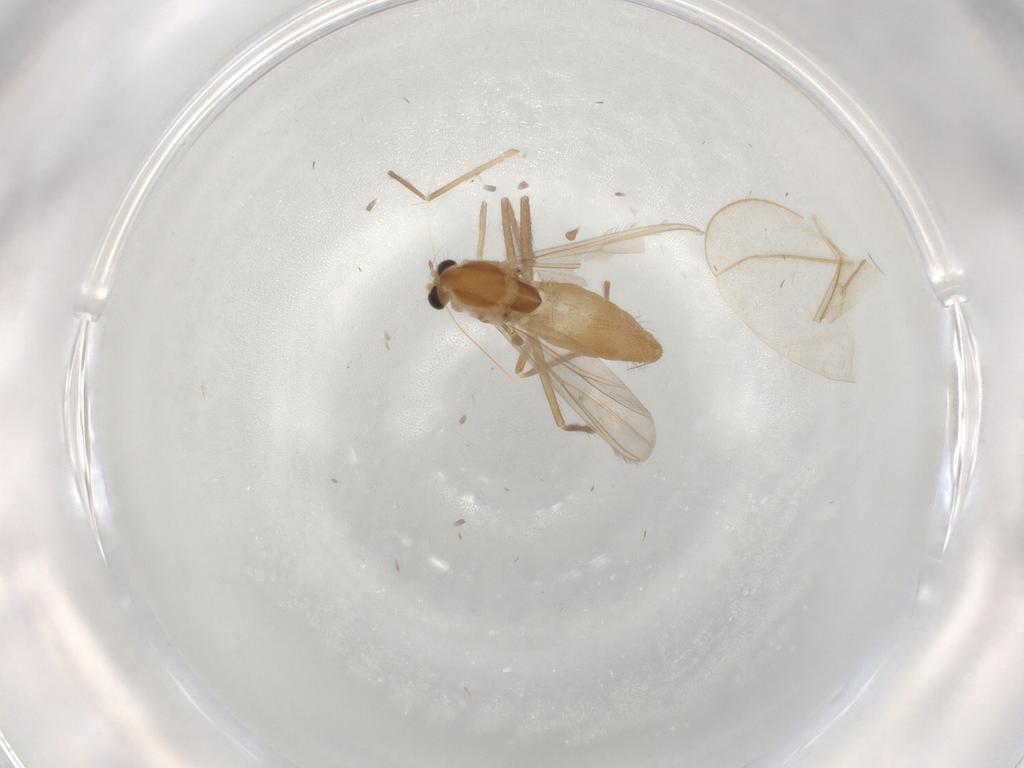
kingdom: Animalia
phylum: Arthropoda
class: Insecta
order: Diptera
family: Chironomidae
